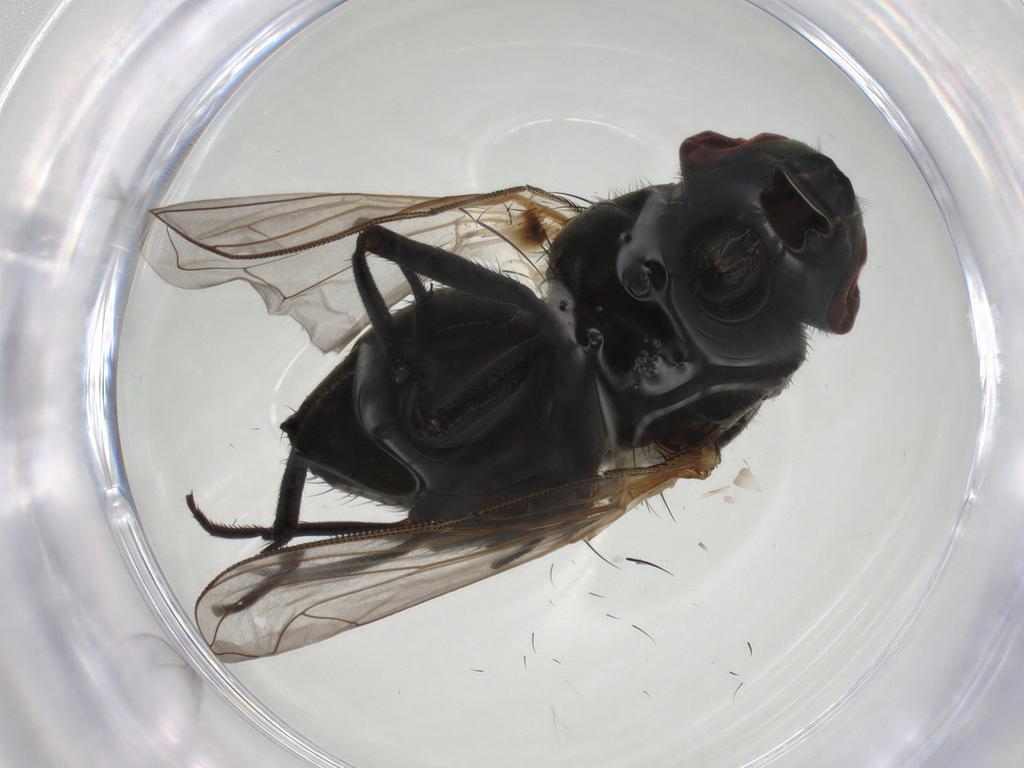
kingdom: Animalia
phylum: Arthropoda
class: Insecta
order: Diptera
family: Muscidae
